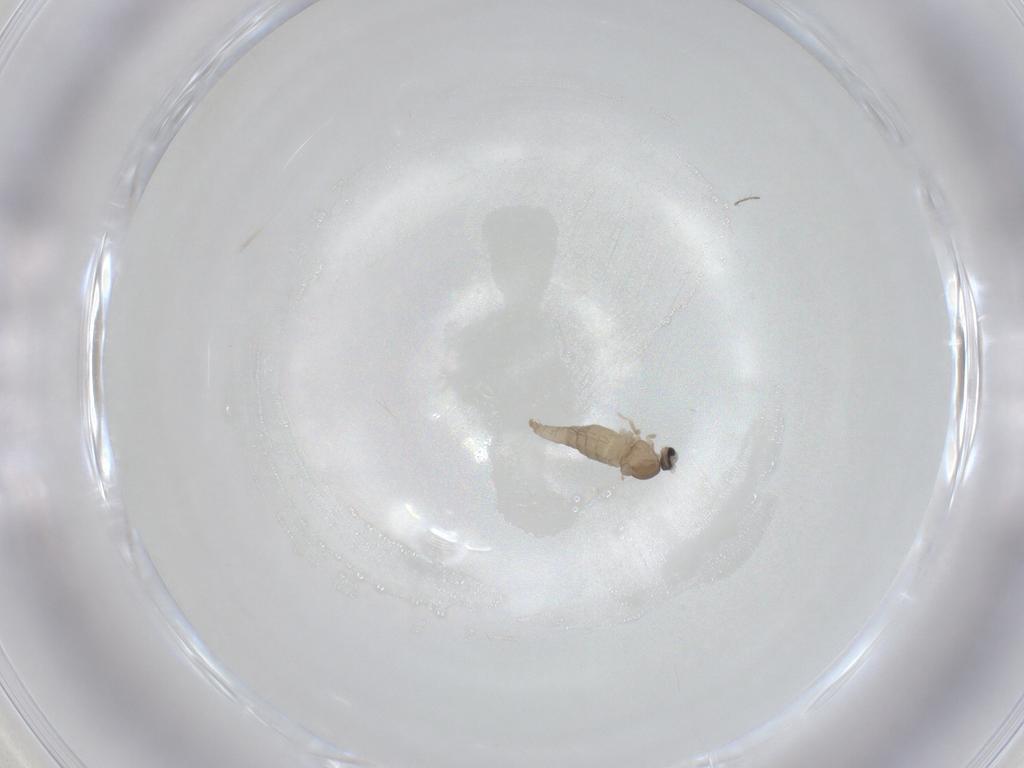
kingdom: Animalia
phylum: Arthropoda
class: Insecta
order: Diptera
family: Cecidomyiidae
